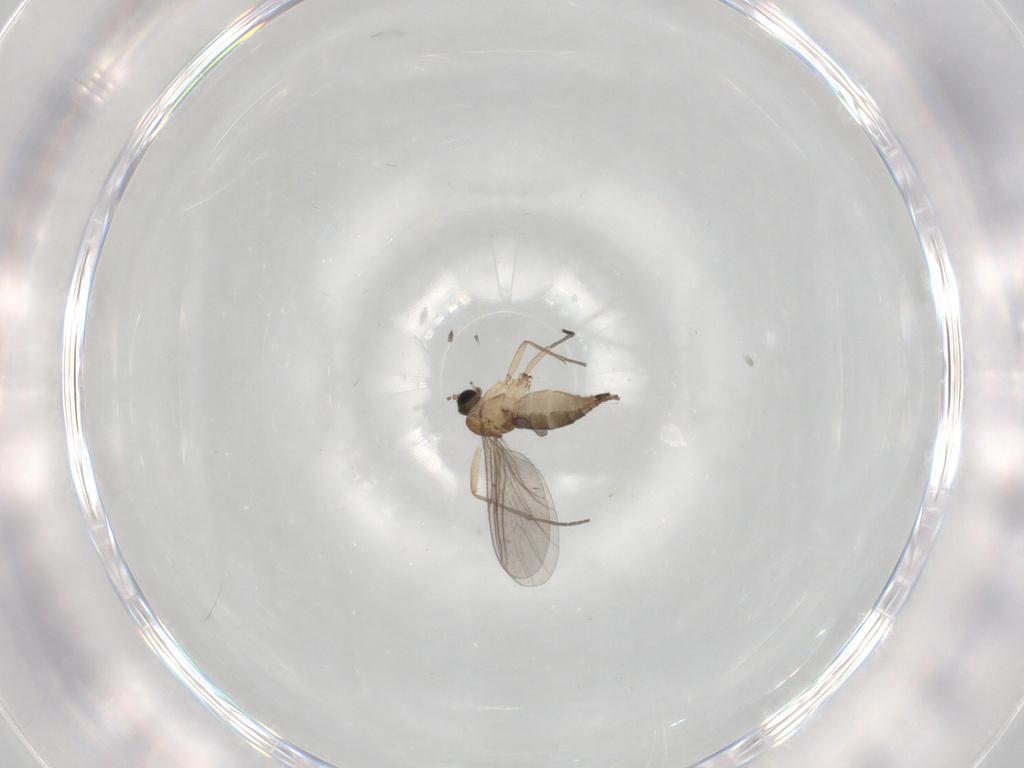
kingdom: Animalia
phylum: Arthropoda
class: Insecta
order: Diptera
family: Sciaridae
